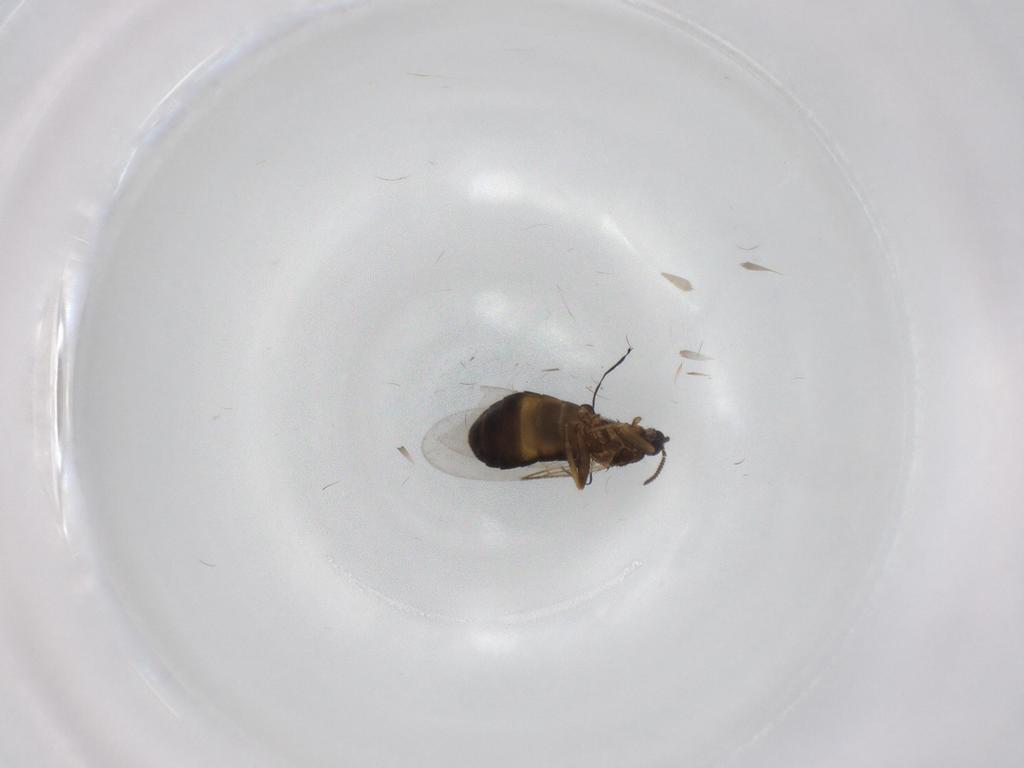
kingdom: Animalia
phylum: Arthropoda
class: Insecta
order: Diptera
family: Scatopsidae
